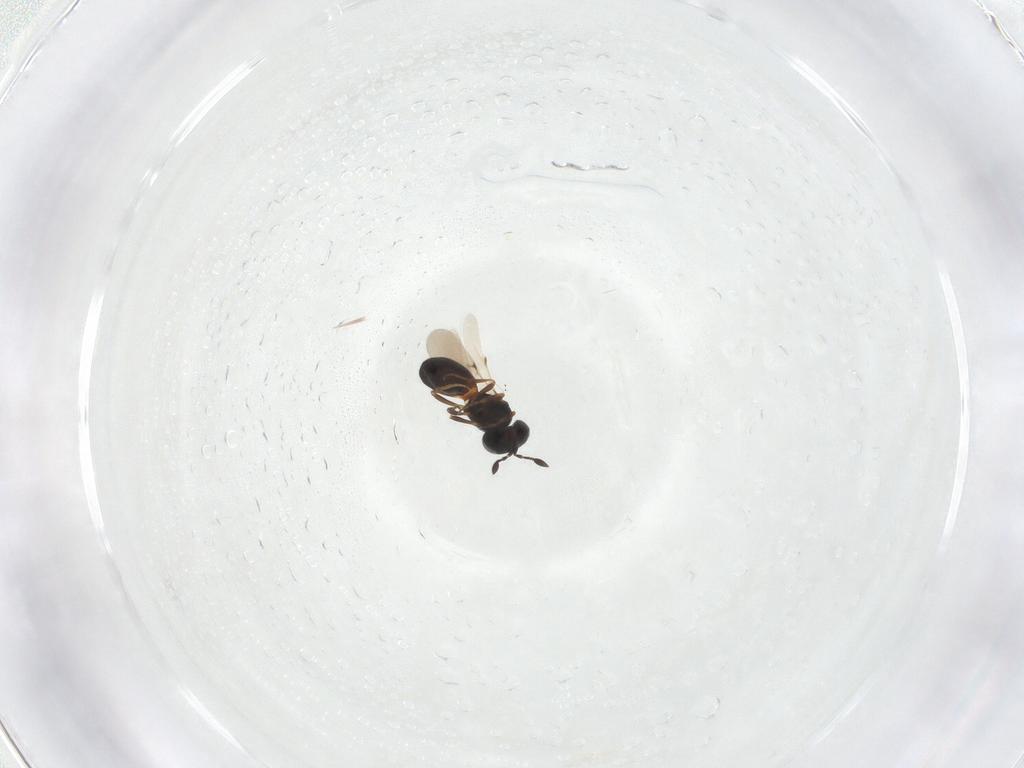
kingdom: Animalia
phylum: Arthropoda
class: Insecta
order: Hymenoptera
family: Scelionidae
